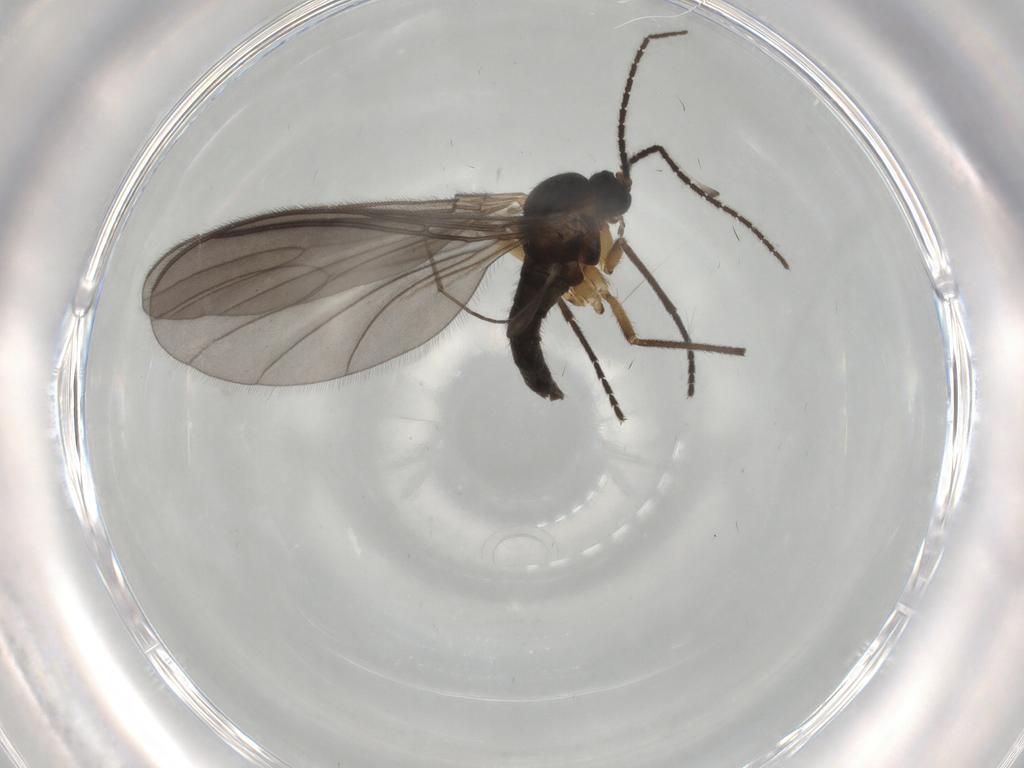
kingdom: Animalia
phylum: Arthropoda
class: Insecta
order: Diptera
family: Sciaridae
